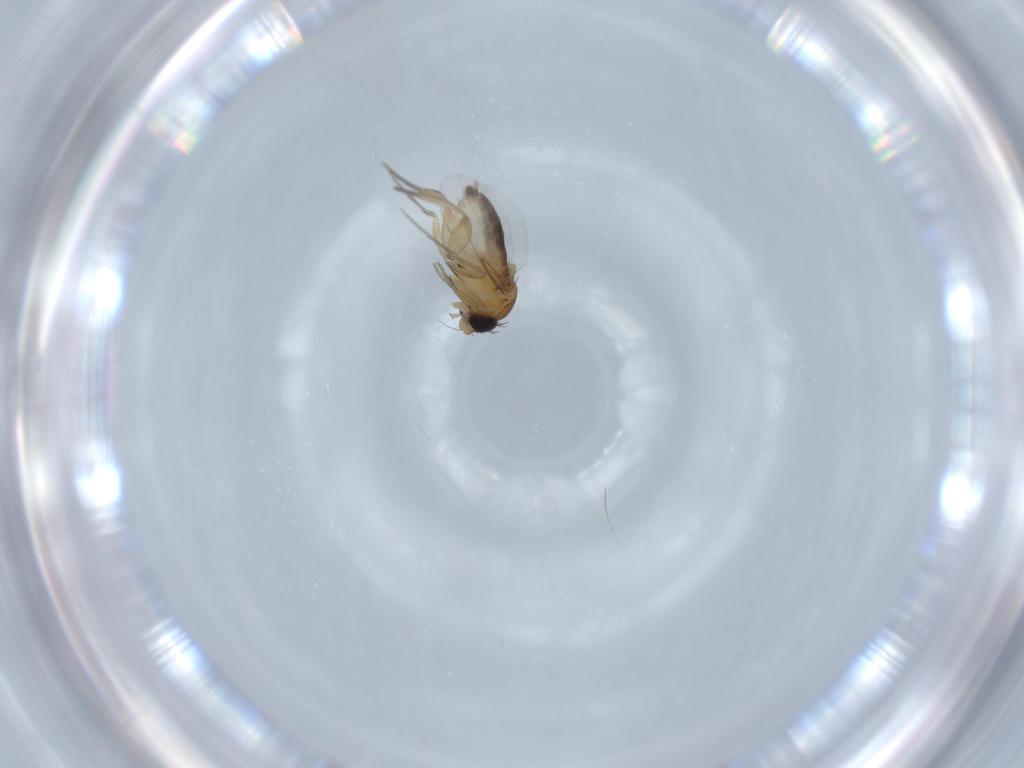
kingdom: Animalia
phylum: Arthropoda
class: Insecta
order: Diptera
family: Phoridae
